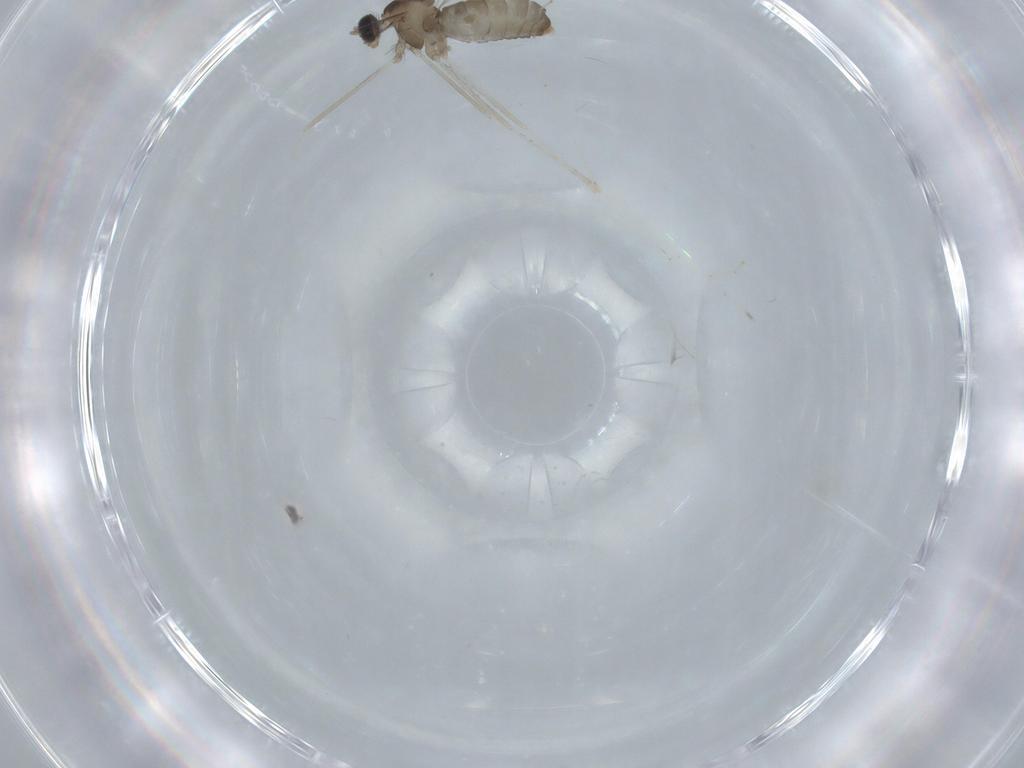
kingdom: Animalia
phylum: Arthropoda
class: Insecta
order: Diptera
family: Cecidomyiidae
